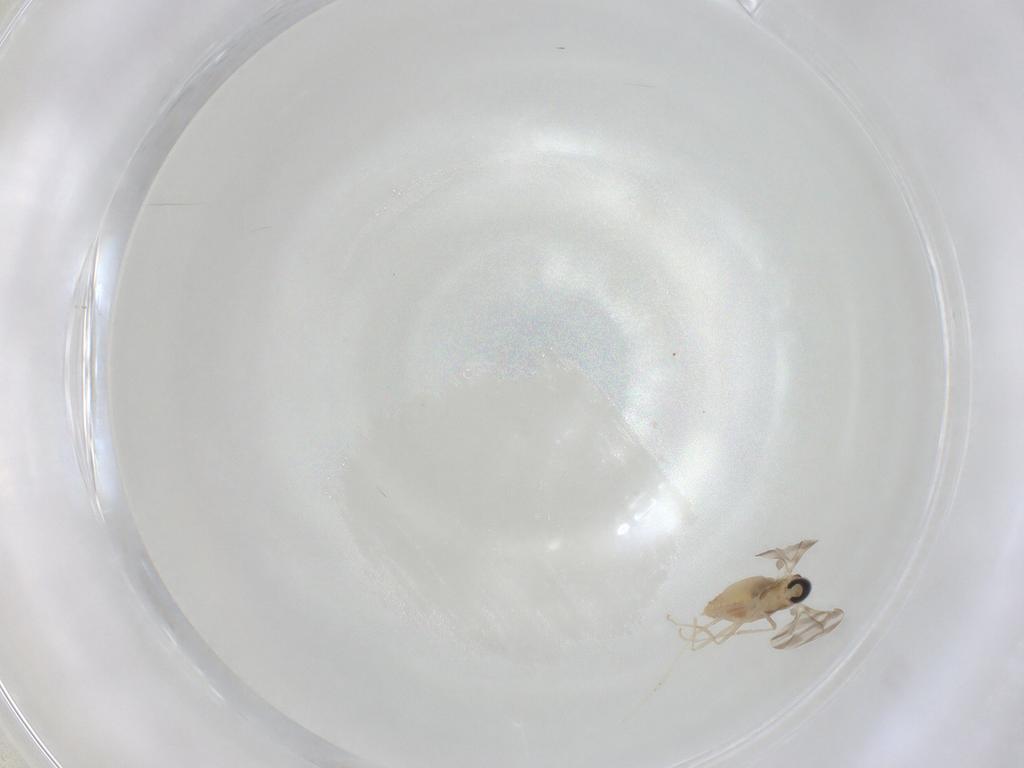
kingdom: Animalia
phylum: Arthropoda
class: Insecta
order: Diptera
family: Cecidomyiidae
